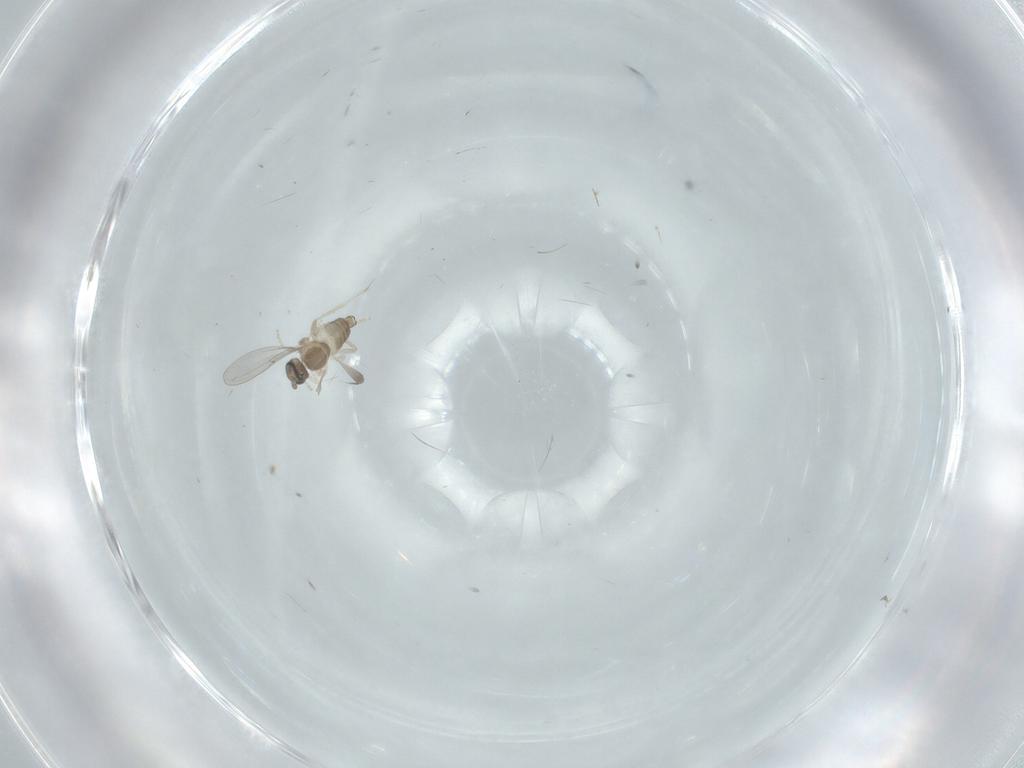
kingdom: Animalia
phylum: Arthropoda
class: Insecta
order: Diptera
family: Cecidomyiidae
